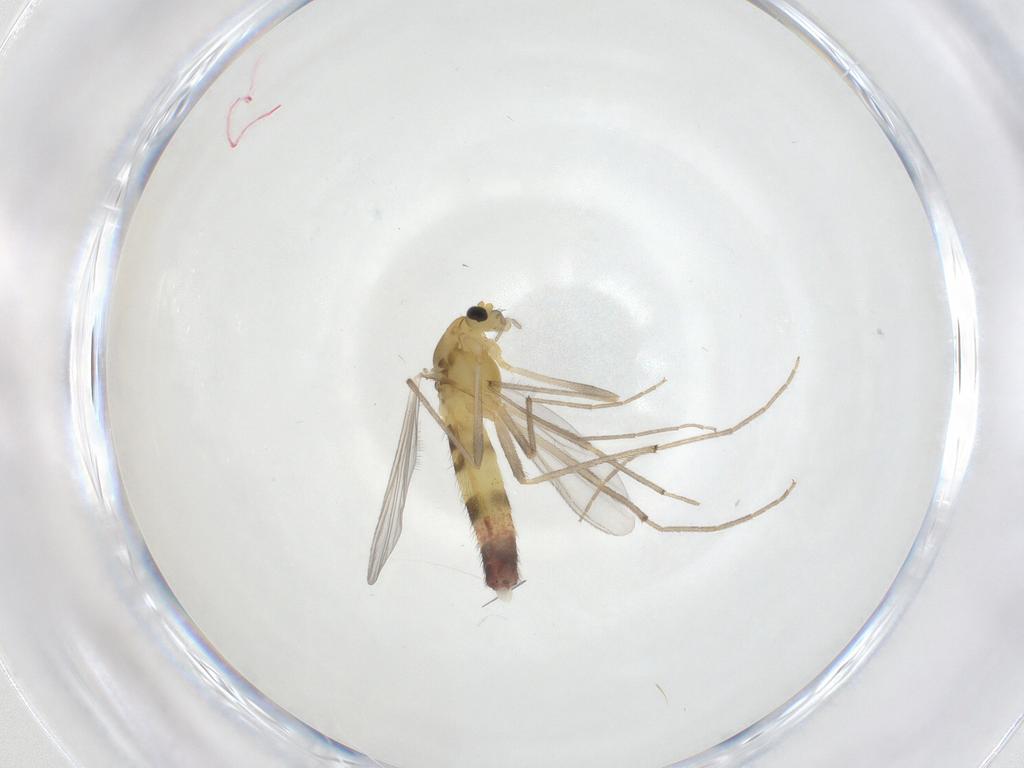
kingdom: Animalia
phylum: Arthropoda
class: Insecta
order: Diptera
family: Chironomidae
